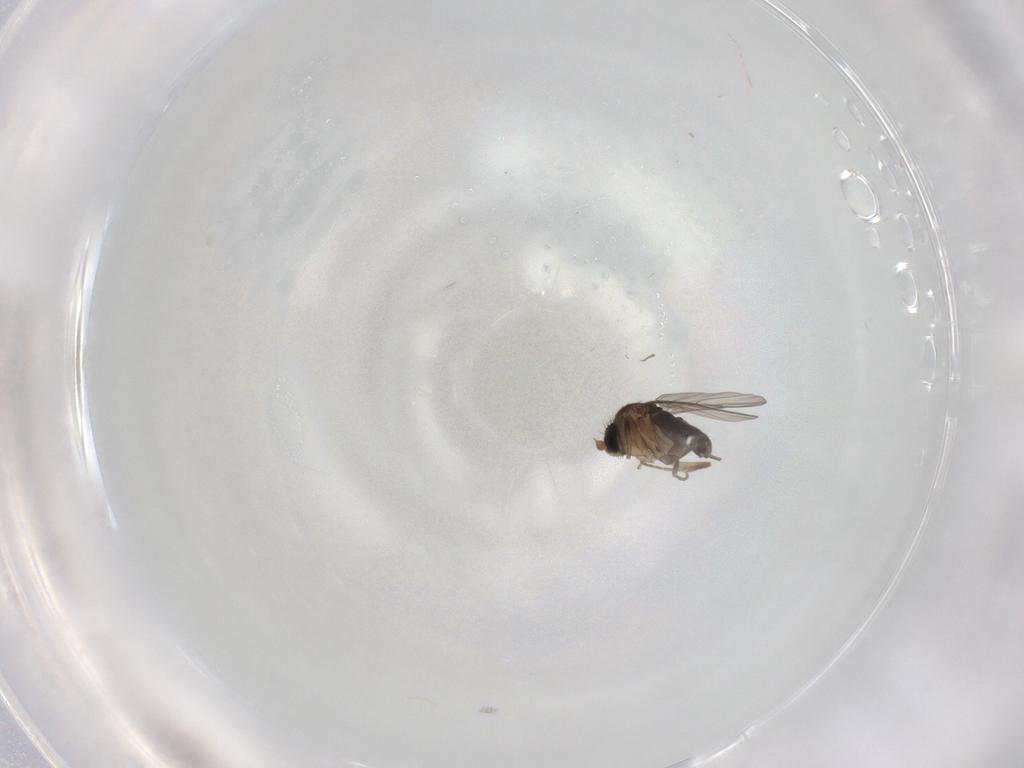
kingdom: Animalia
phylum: Arthropoda
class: Insecta
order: Diptera
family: Phoridae
